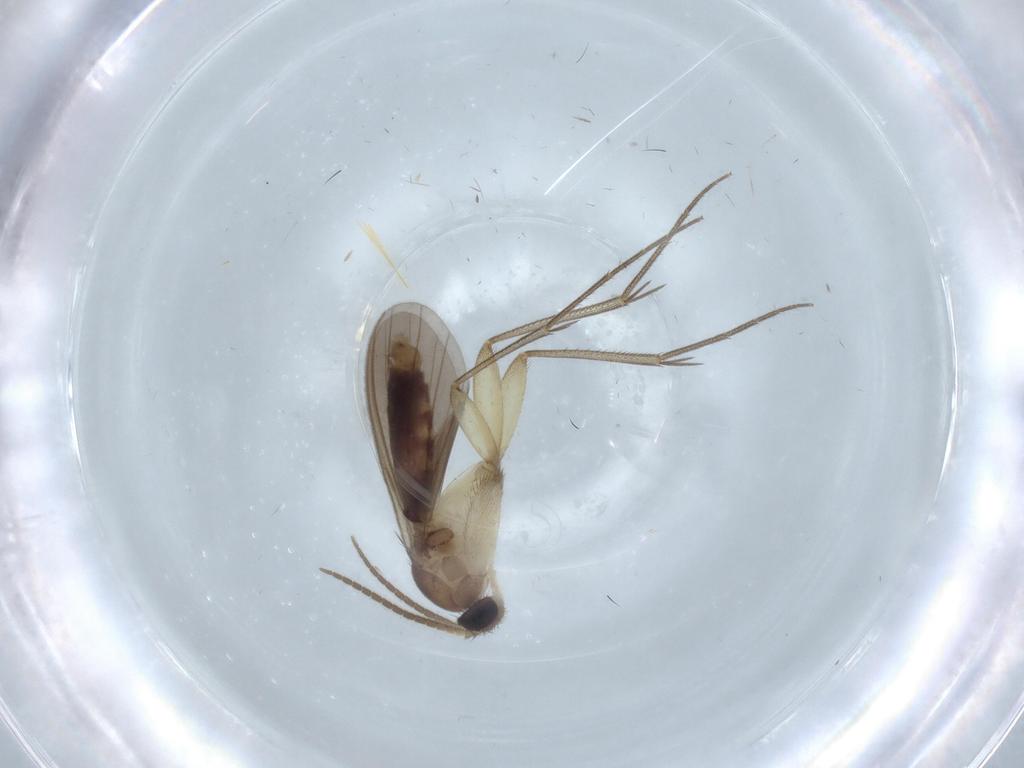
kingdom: Animalia
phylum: Arthropoda
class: Insecta
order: Diptera
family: Mycetophilidae
